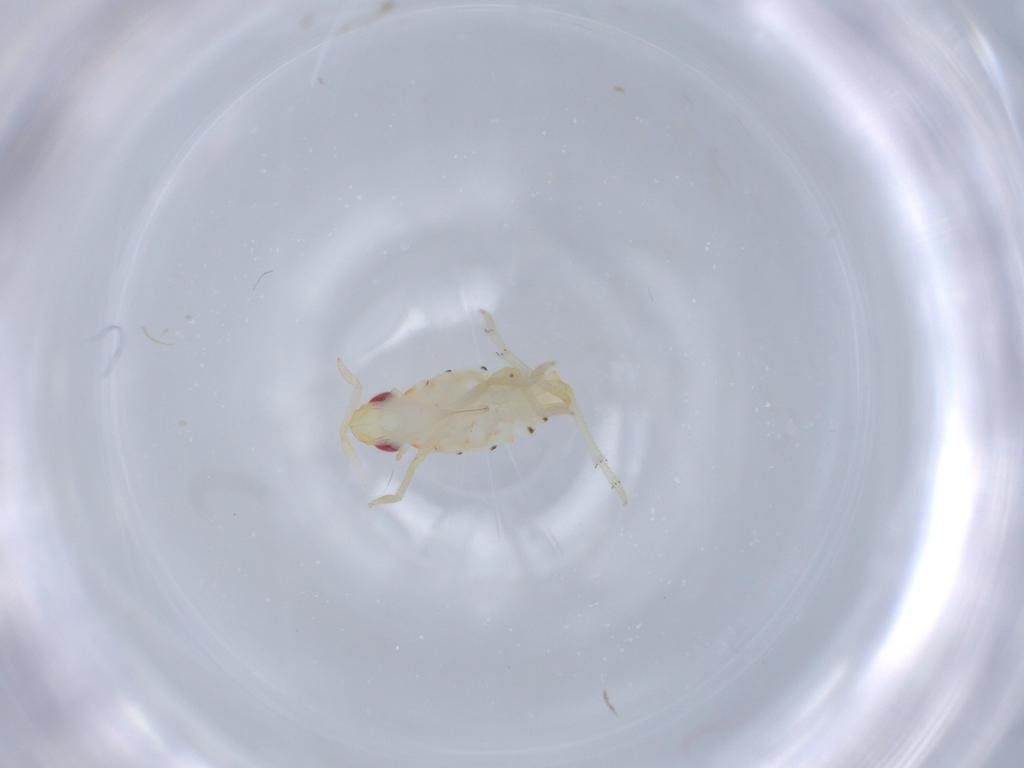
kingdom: Animalia
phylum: Arthropoda
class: Insecta
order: Hemiptera
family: Tropiduchidae
